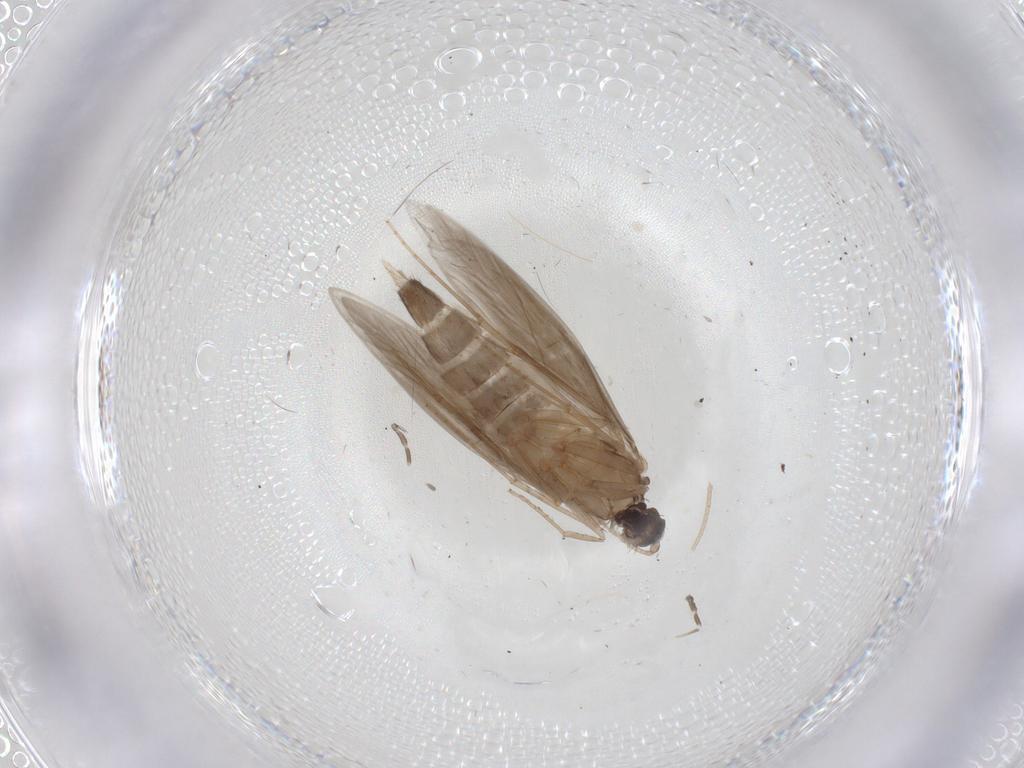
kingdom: Animalia
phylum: Arthropoda
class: Insecta
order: Trichoptera
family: Hydroptilidae
